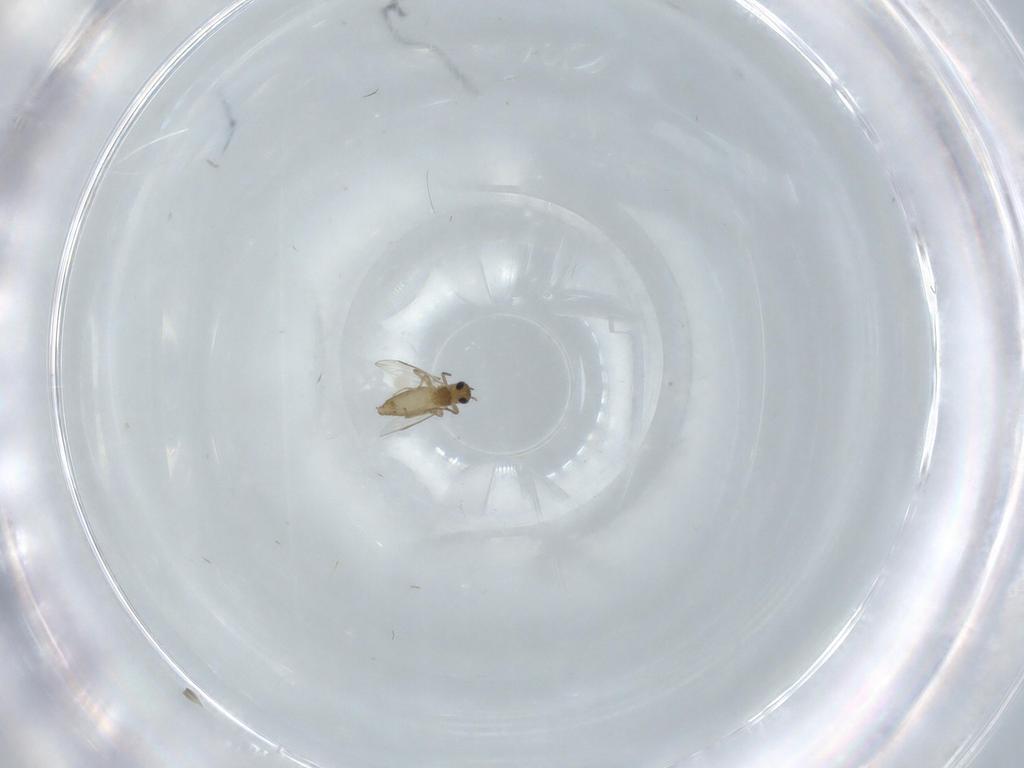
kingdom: Animalia
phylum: Arthropoda
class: Insecta
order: Diptera
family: Chironomidae
